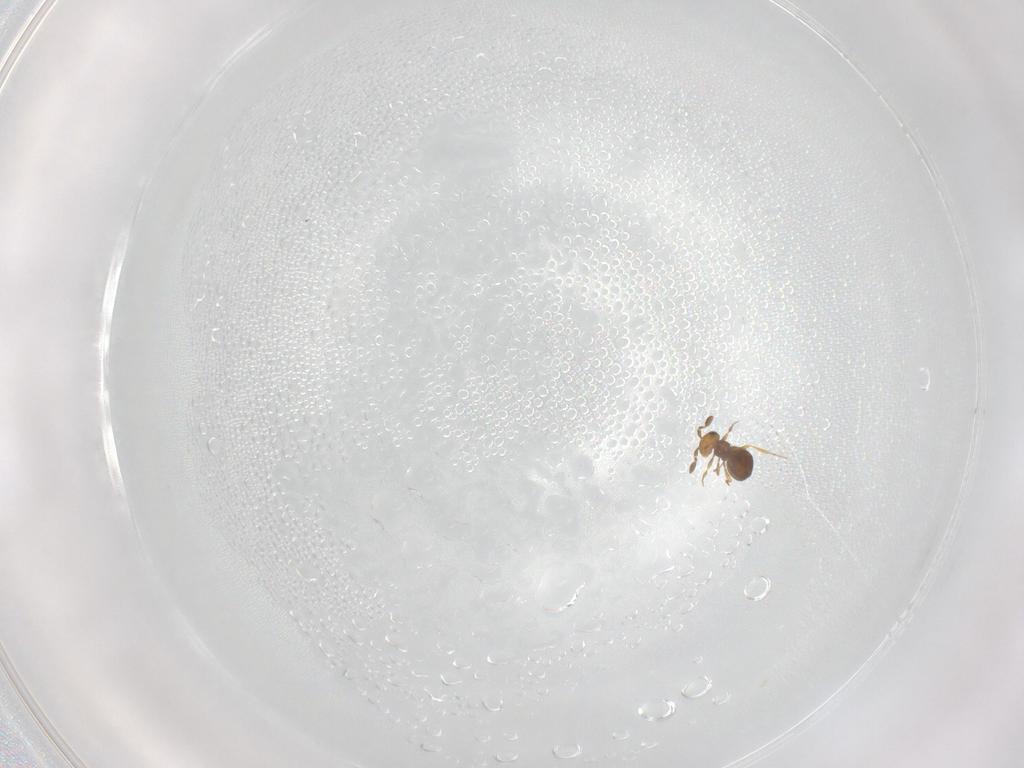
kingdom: Animalia
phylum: Arthropoda
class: Insecta
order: Hymenoptera
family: Platygastridae
